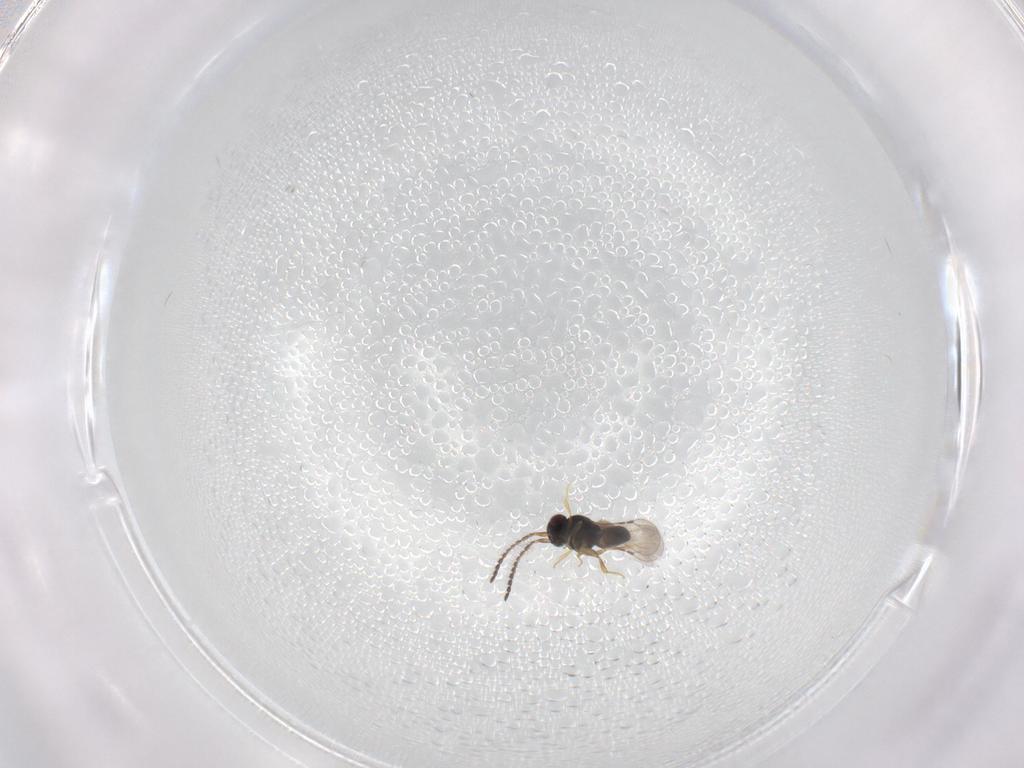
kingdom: Animalia
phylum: Arthropoda
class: Insecta
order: Hymenoptera
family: Ceraphronidae
